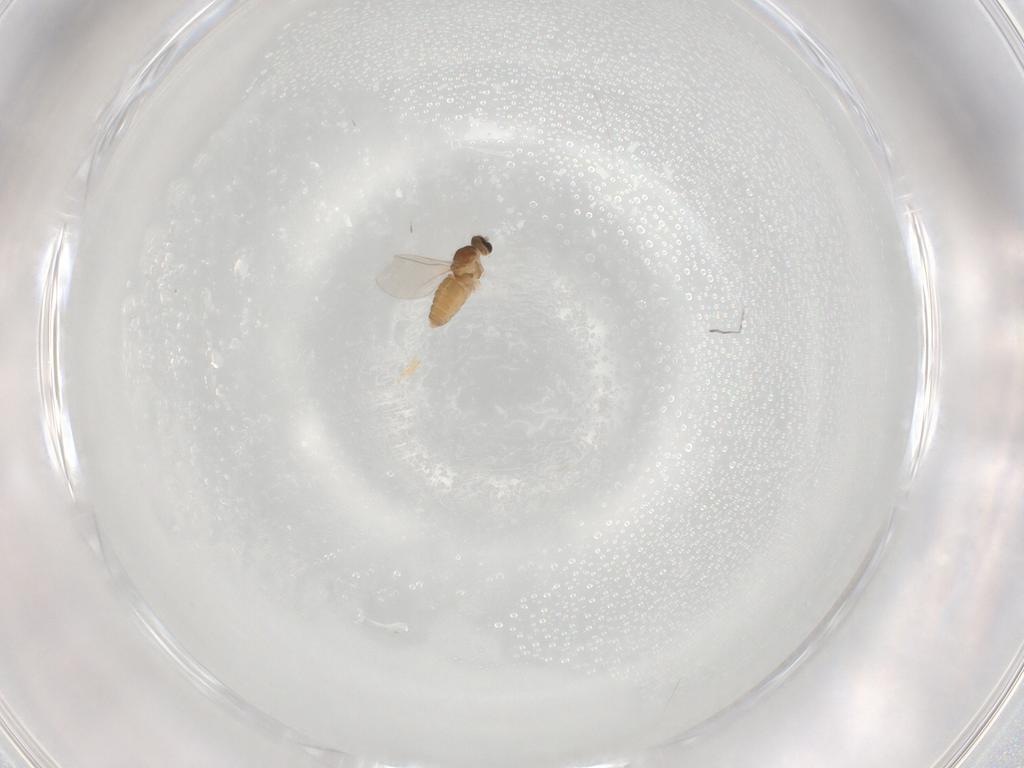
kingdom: Animalia
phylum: Arthropoda
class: Insecta
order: Diptera
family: Cecidomyiidae
